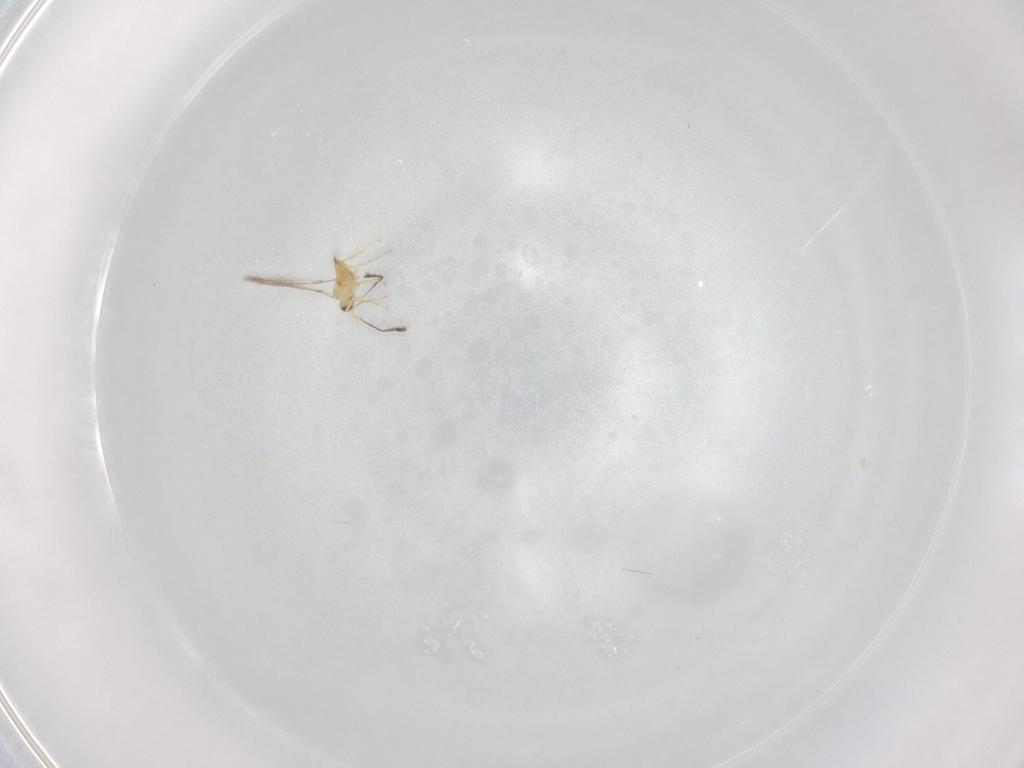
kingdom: Animalia
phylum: Arthropoda
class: Insecta
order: Hymenoptera
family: Mymaridae
